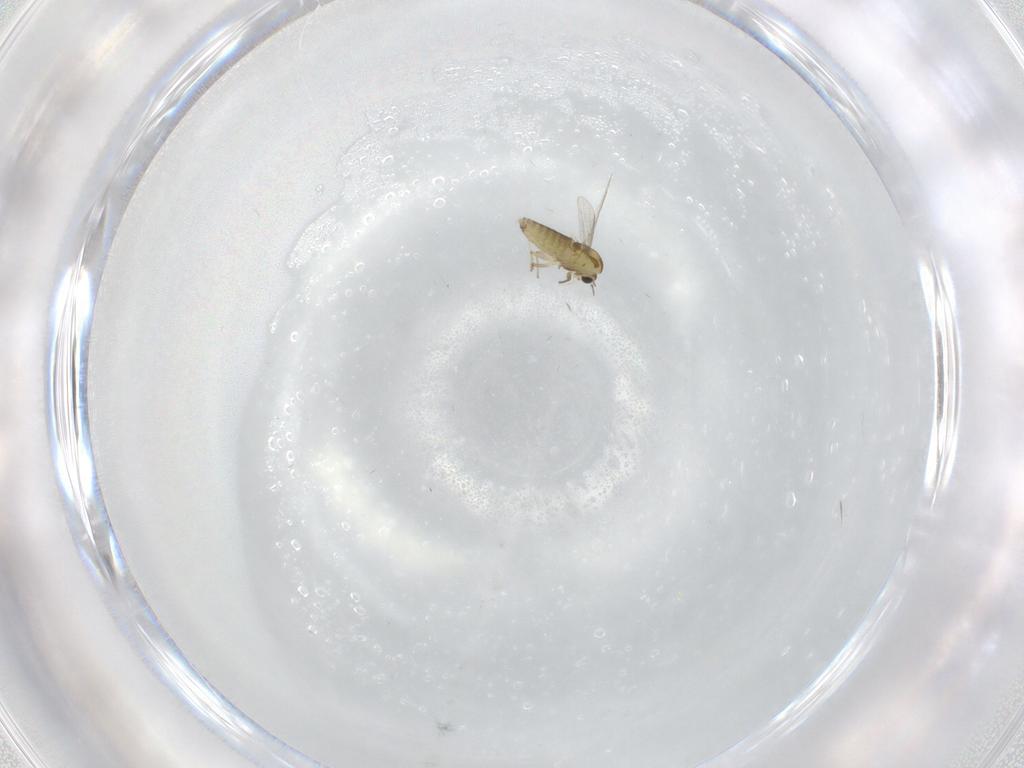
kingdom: Animalia
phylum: Arthropoda
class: Insecta
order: Diptera
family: Chironomidae
